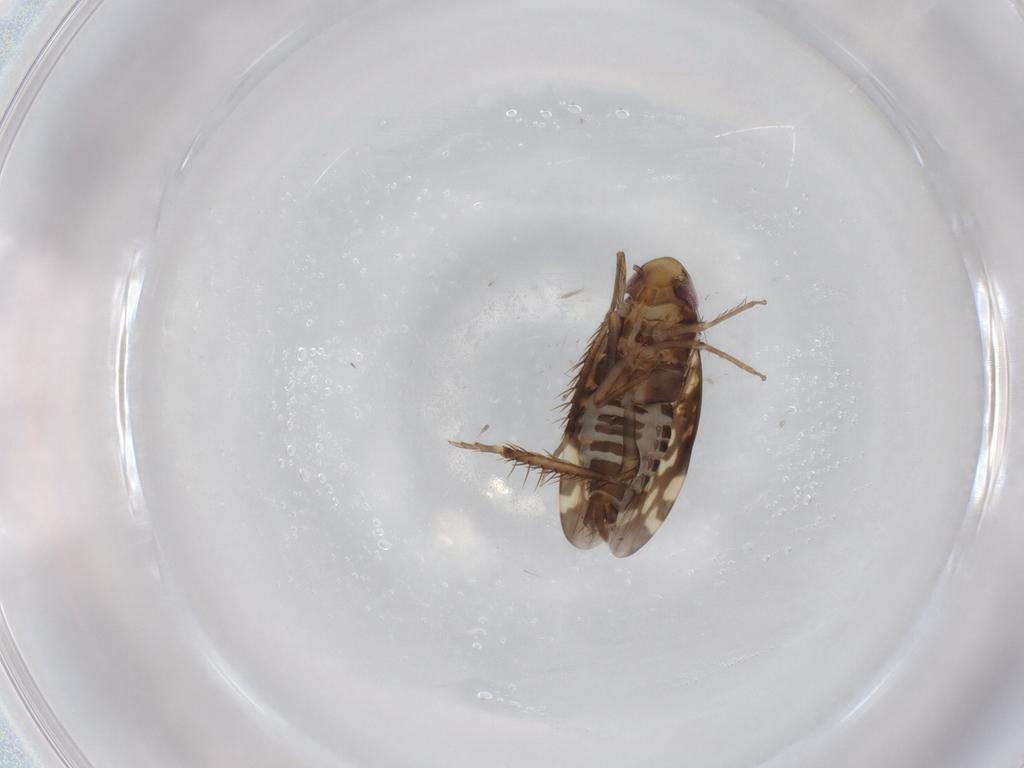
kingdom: Animalia
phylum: Arthropoda
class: Insecta
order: Hemiptera
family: Cicadellidae
